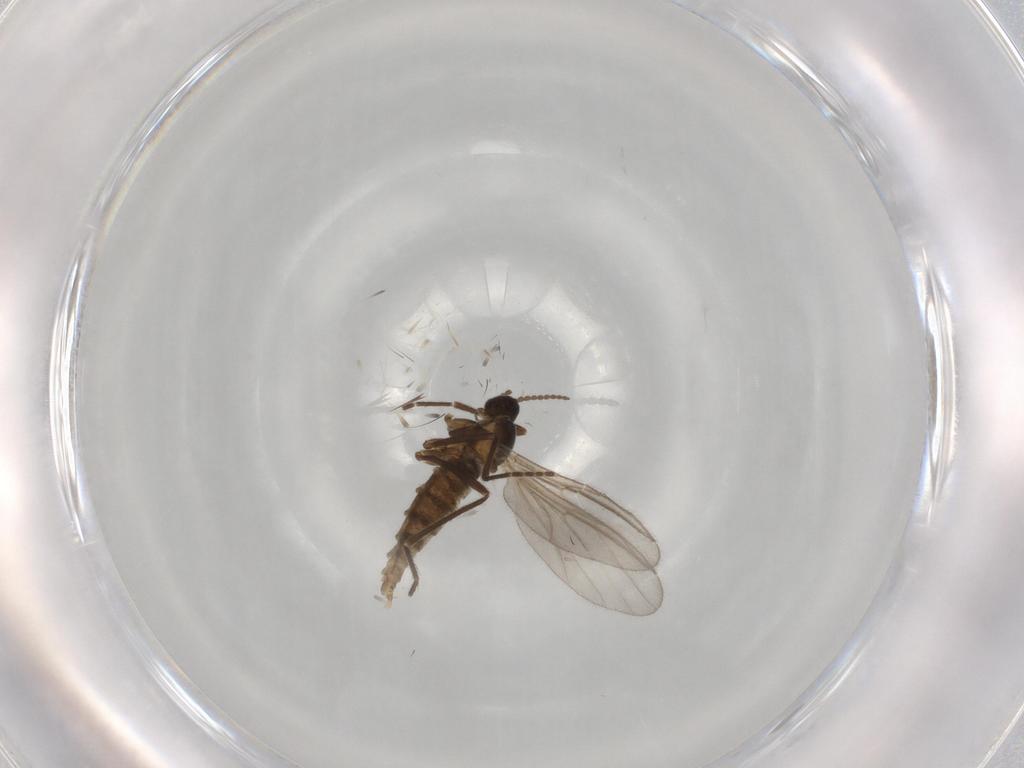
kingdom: Animalia
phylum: Arthropoda
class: Insecta
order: Diptera
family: Cecidomyiidae
